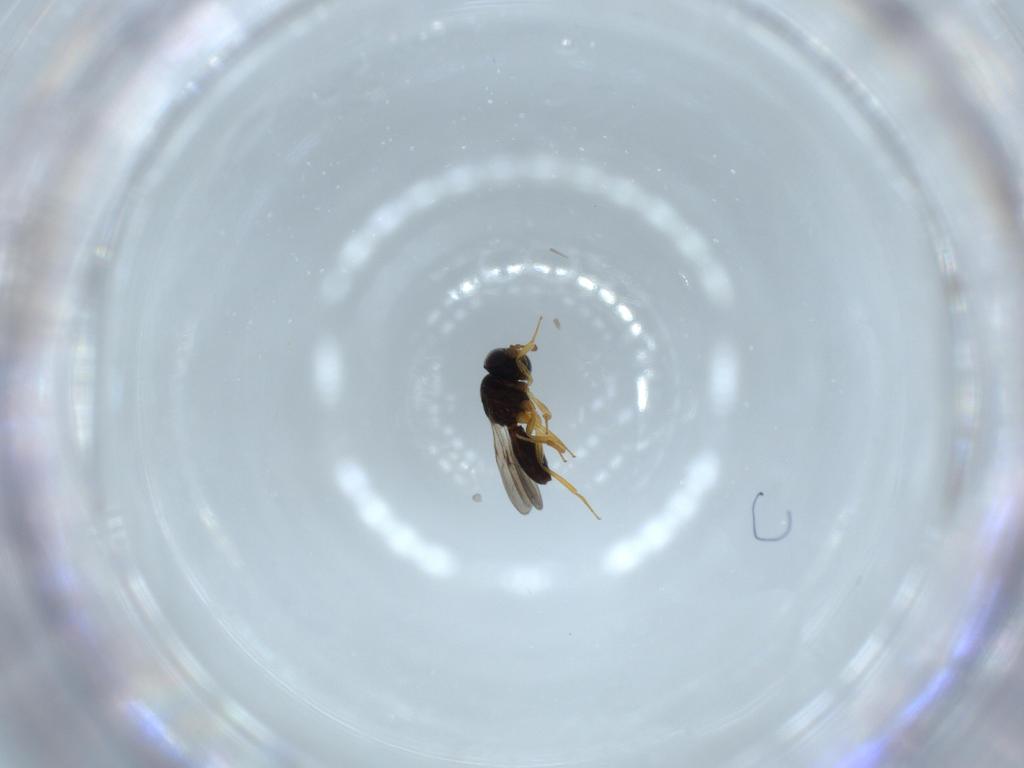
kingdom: Animalia
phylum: Arthropoda
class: Insecta
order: Hymenoptera
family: Scelionidae
